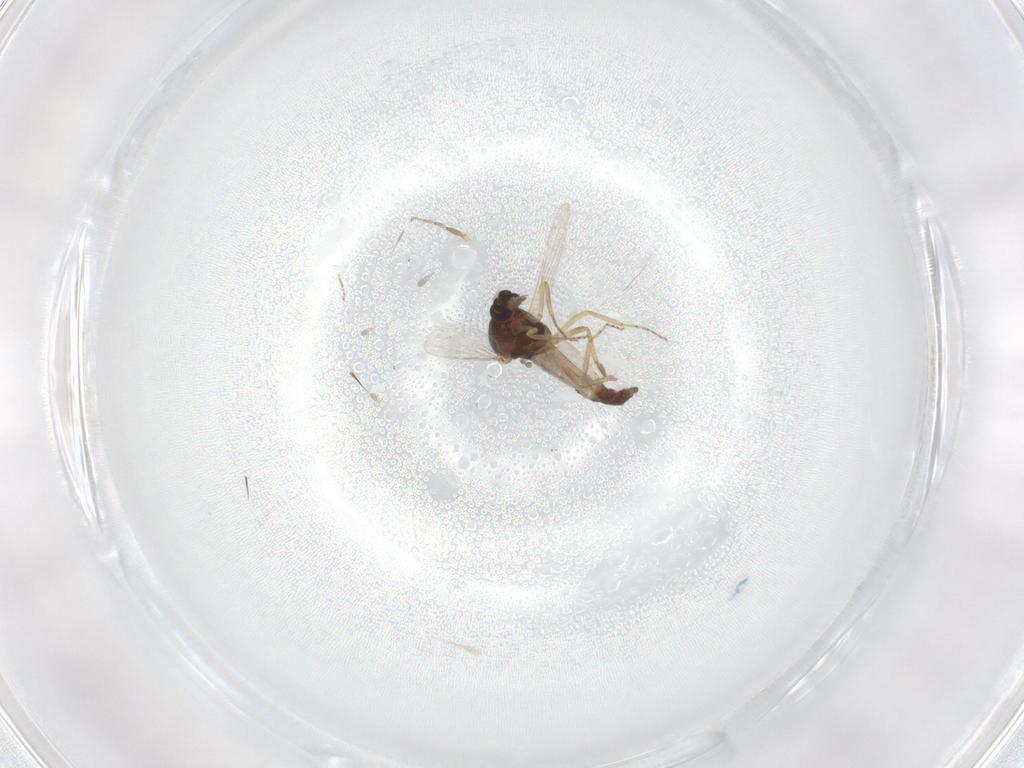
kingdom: Animalia
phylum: Arthropoda
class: Insecta
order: Diptera
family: Ceratopogonidae
